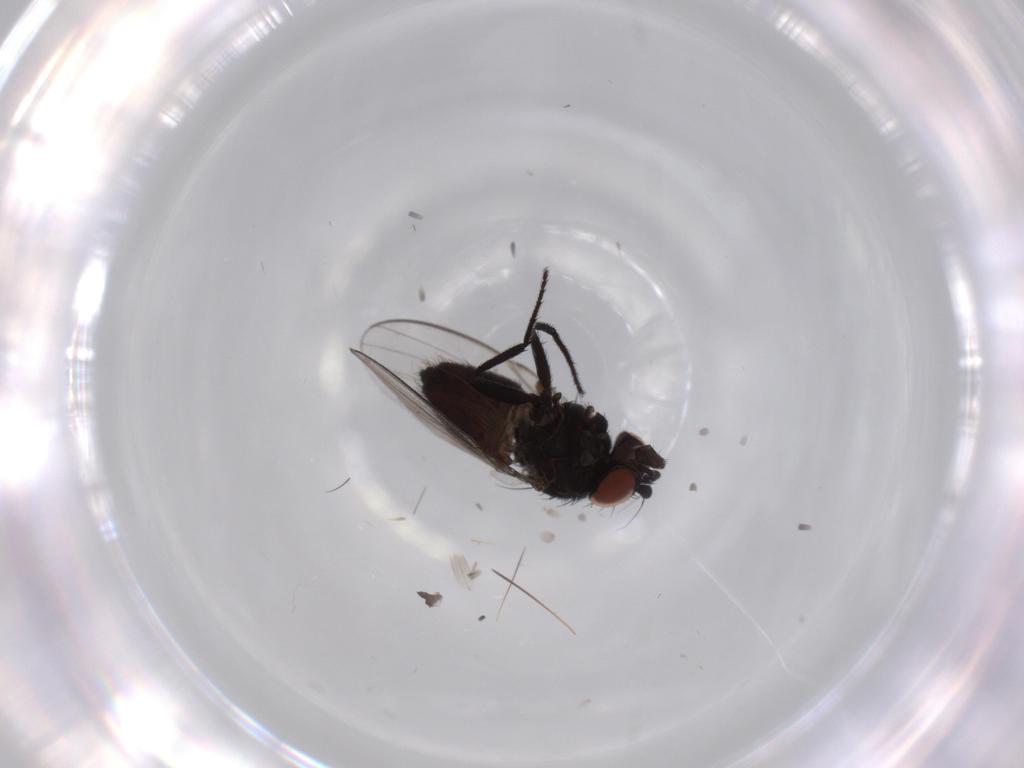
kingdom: Animalia
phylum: Arthropoda
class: Insecta
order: Diptera
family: Milichiidae
